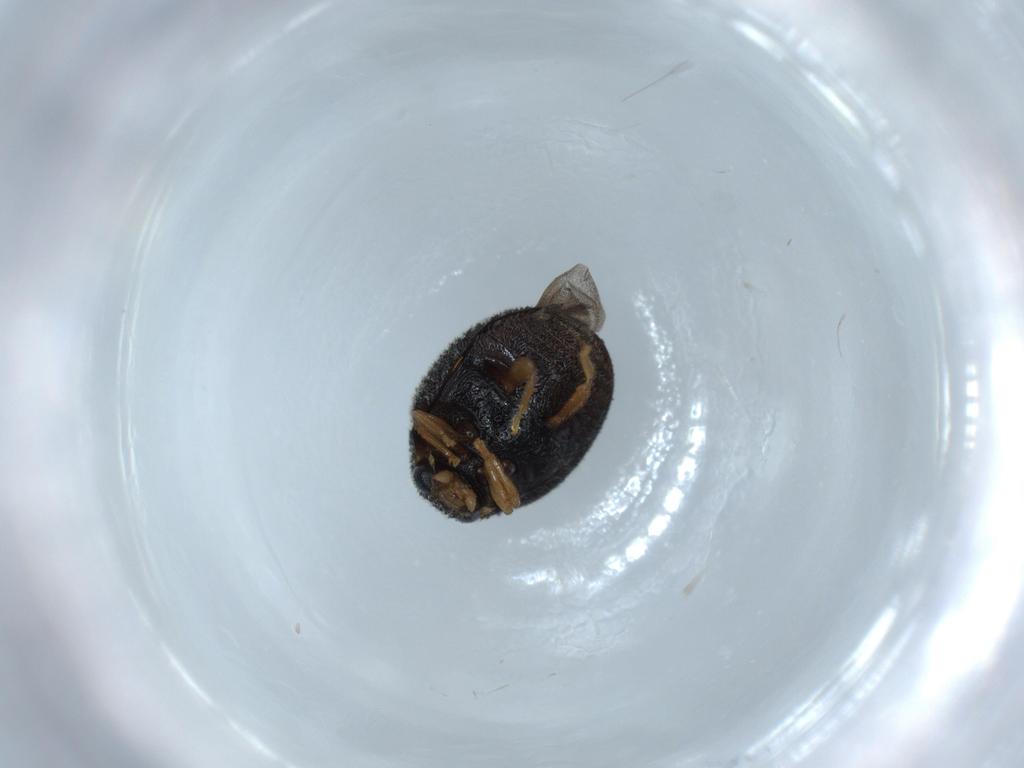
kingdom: Animalia
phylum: Arthropoda
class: Insecta
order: Coleoptera
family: Coccinellidae
